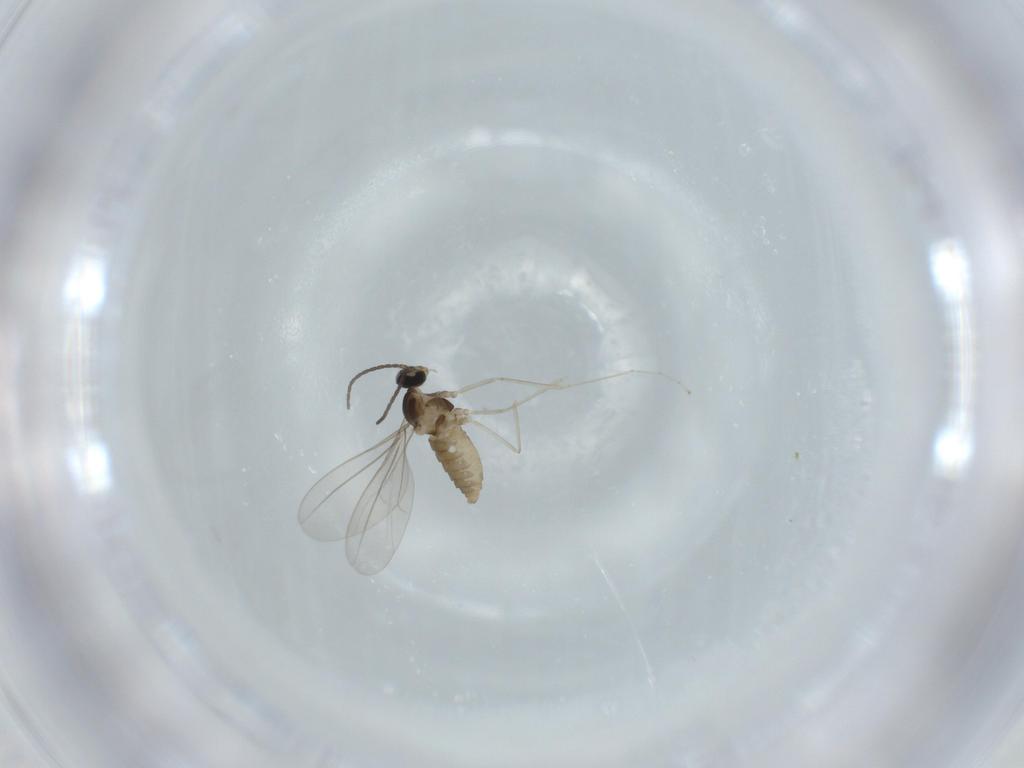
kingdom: Animalia
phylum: Arthropoda
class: Insecta
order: Diptera
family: Cecidomyiidae
